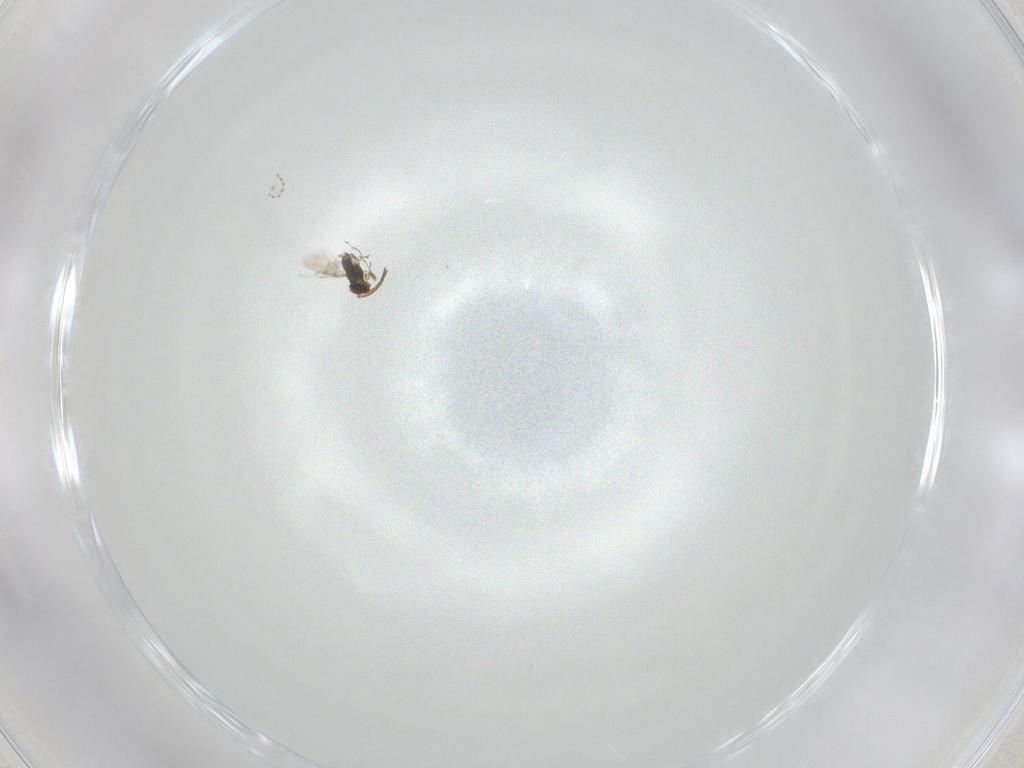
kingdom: Animalia
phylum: Arthropoda
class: Insecta
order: Hymenoptera
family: Azotidae
